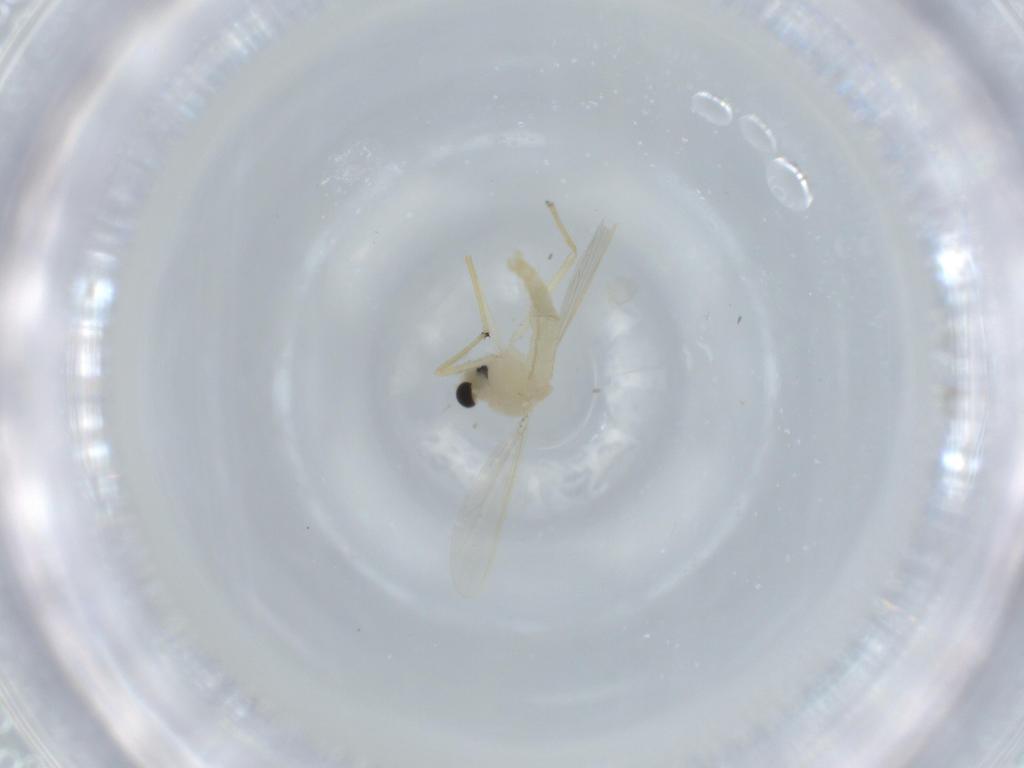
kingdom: Animalia
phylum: Arthropoda
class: Insecta
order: Diptera
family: Chironomidae
